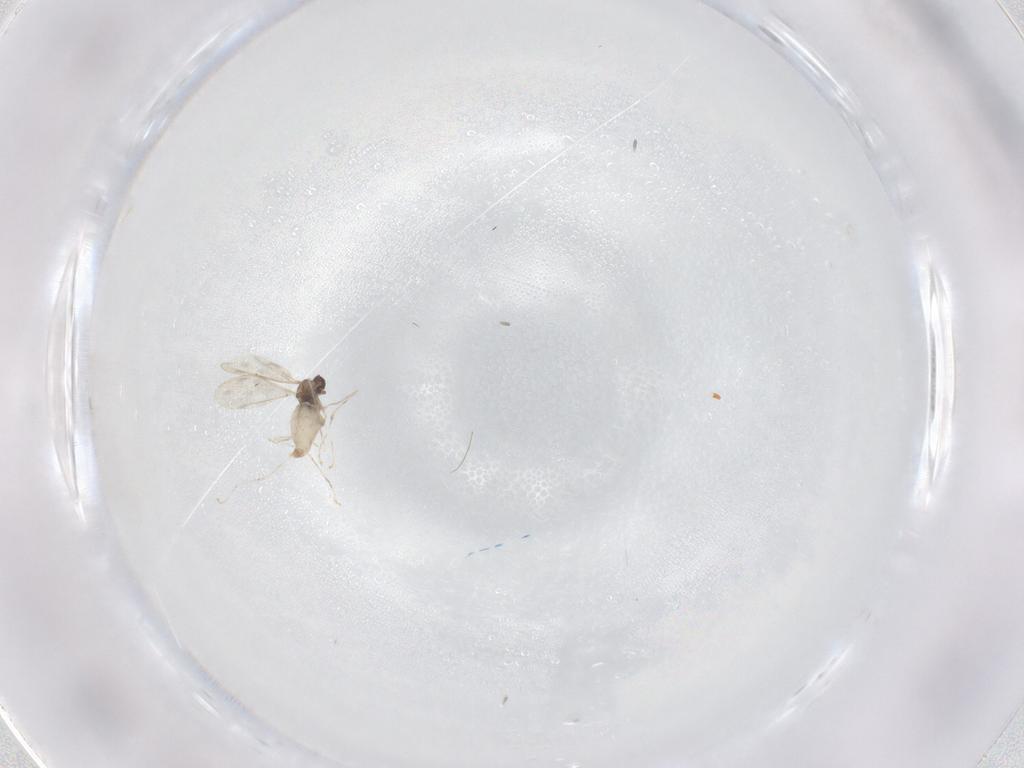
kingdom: Animalia
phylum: Arthropoda
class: Insecta
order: Diptera
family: Cecidomyiidae
